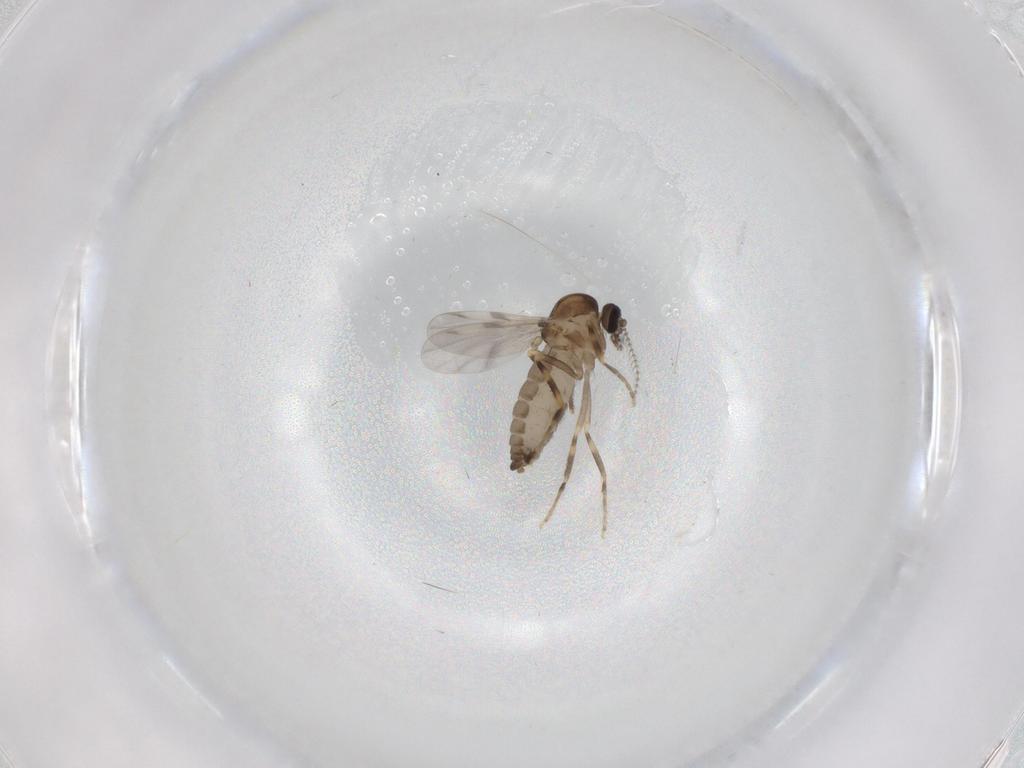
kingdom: Animalia
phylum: Arthropoda
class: Insecta
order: Diptera
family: Ceratopogonidae
